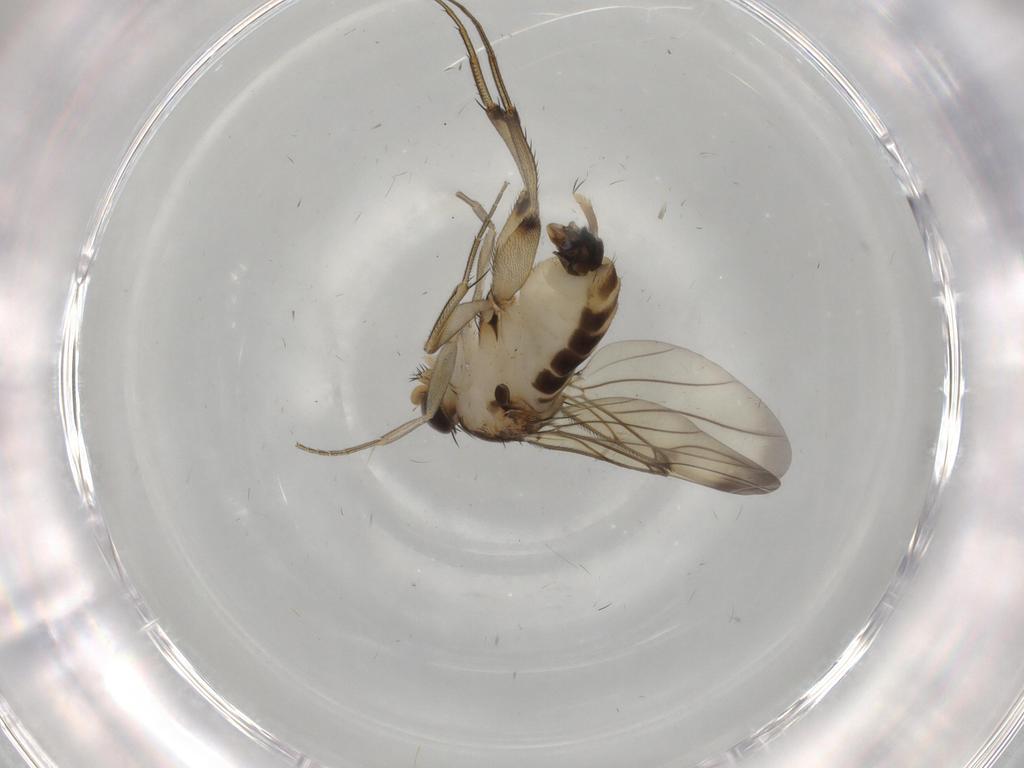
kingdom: Animalia
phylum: Arthropoda
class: Insecta
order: Diptera
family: Phoridae
